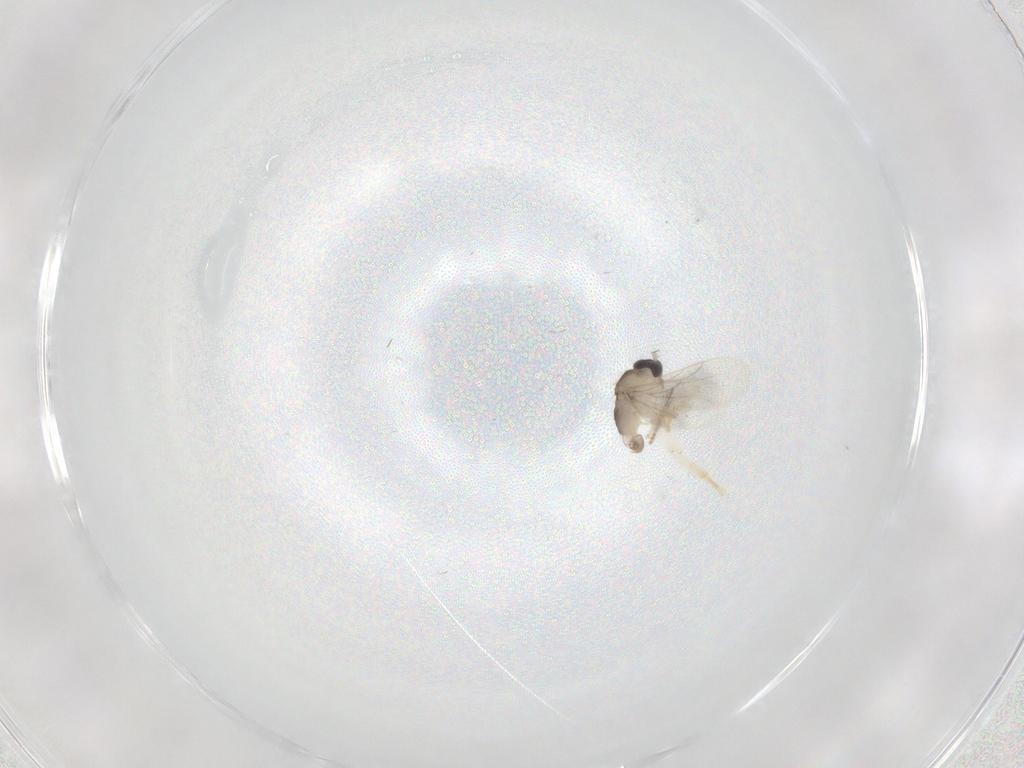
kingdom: Animalia
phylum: Arthropoda
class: Insecta
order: Diptera
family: Hybotidae
